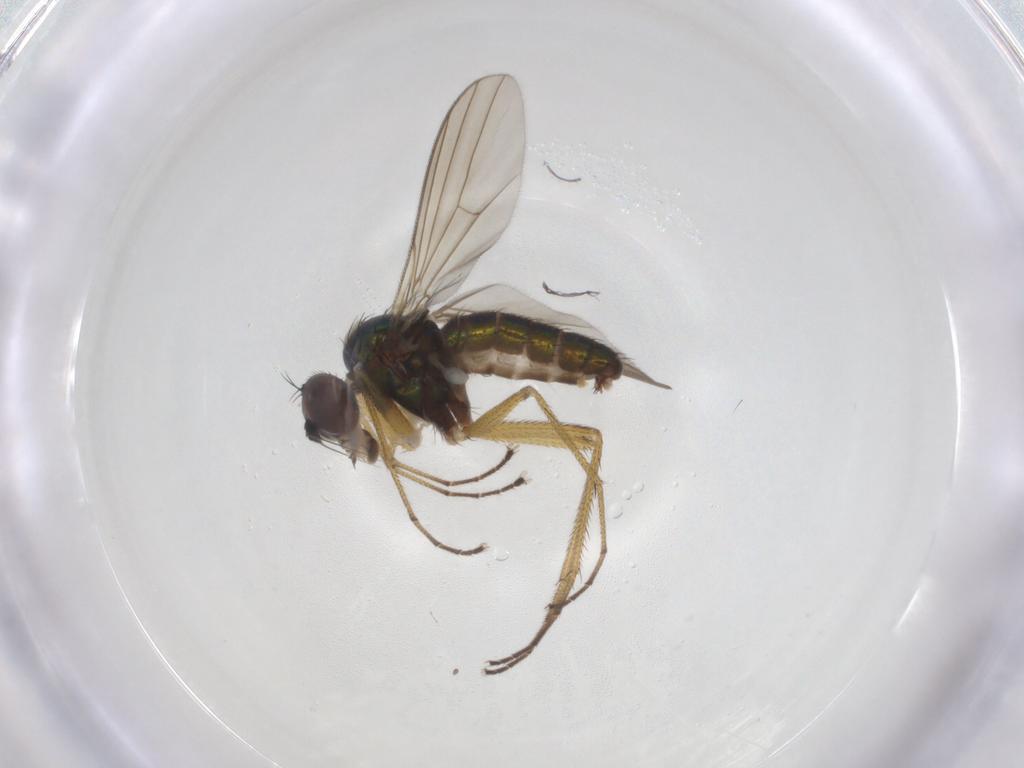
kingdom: Animalia
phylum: Arthropoda
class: Insecta
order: Diptera
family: Dolichopodidae
